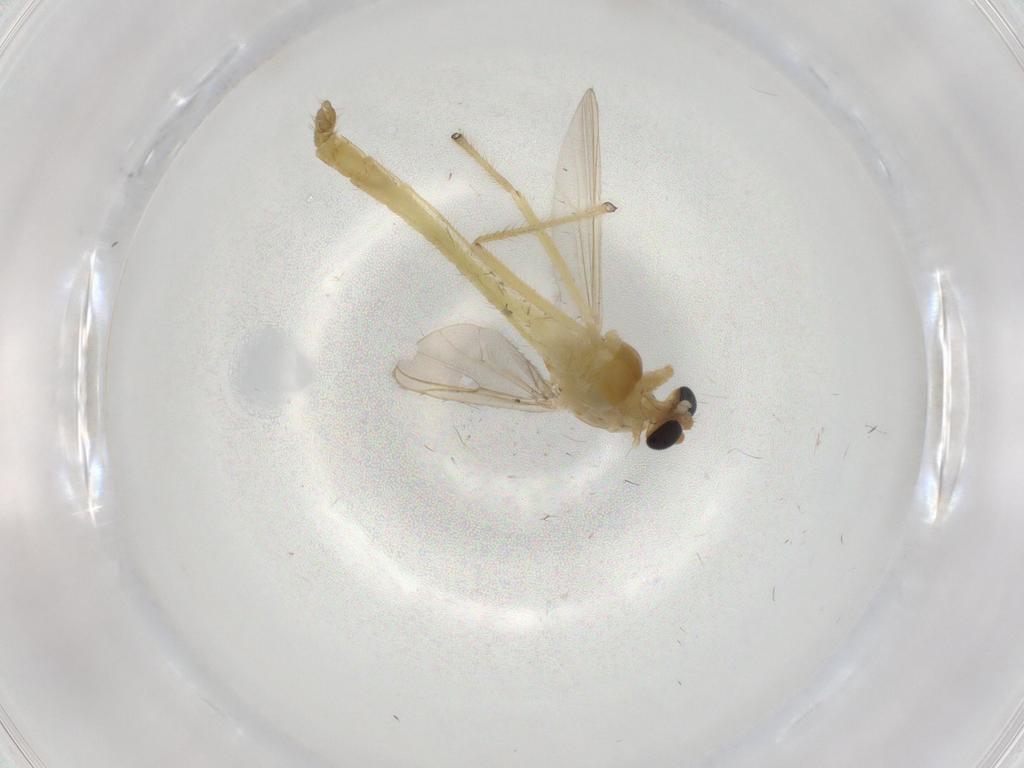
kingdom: Animalia
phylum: Arthropoda
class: Insecta
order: Diptera
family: Chironomidae
